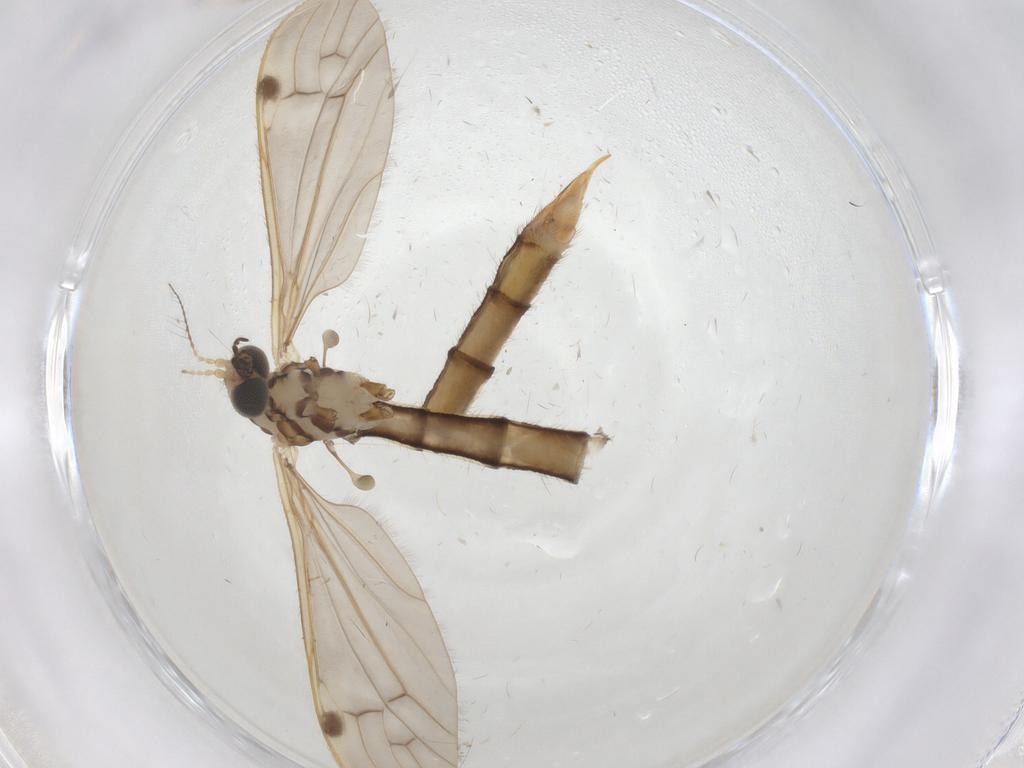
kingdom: Animalia
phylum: Arthropoda
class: Insecta
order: Diptera
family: Limoniidae
